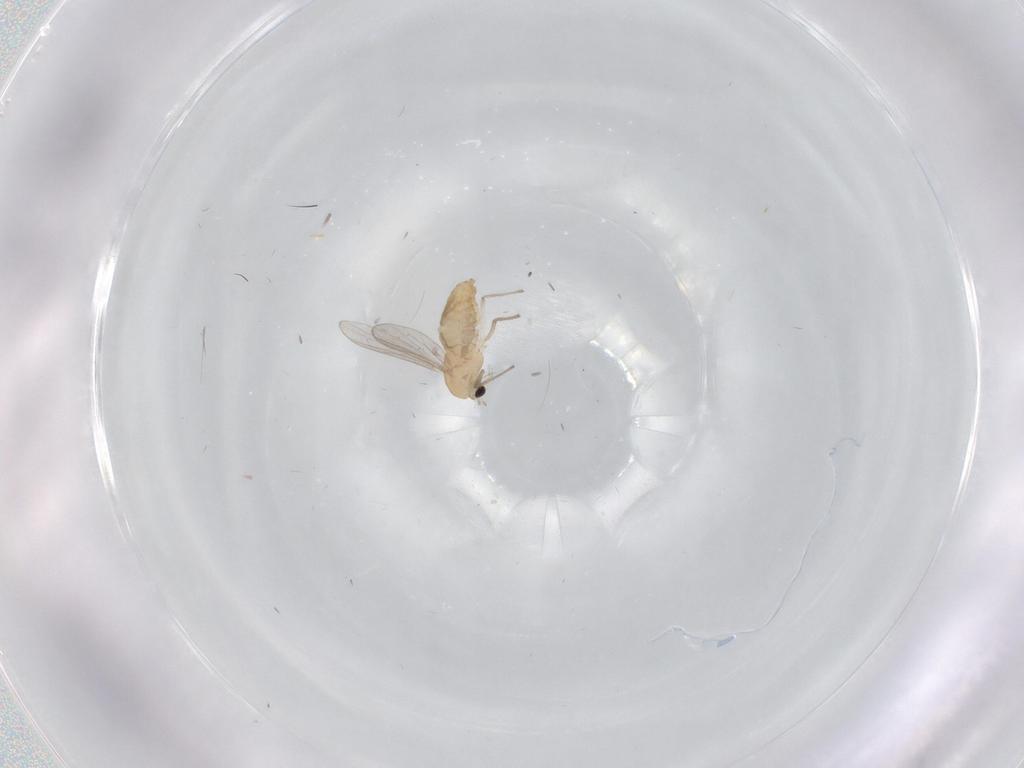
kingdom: Animalia
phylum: Arthropoda
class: Insecta
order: Diptera
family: Chironomidae
